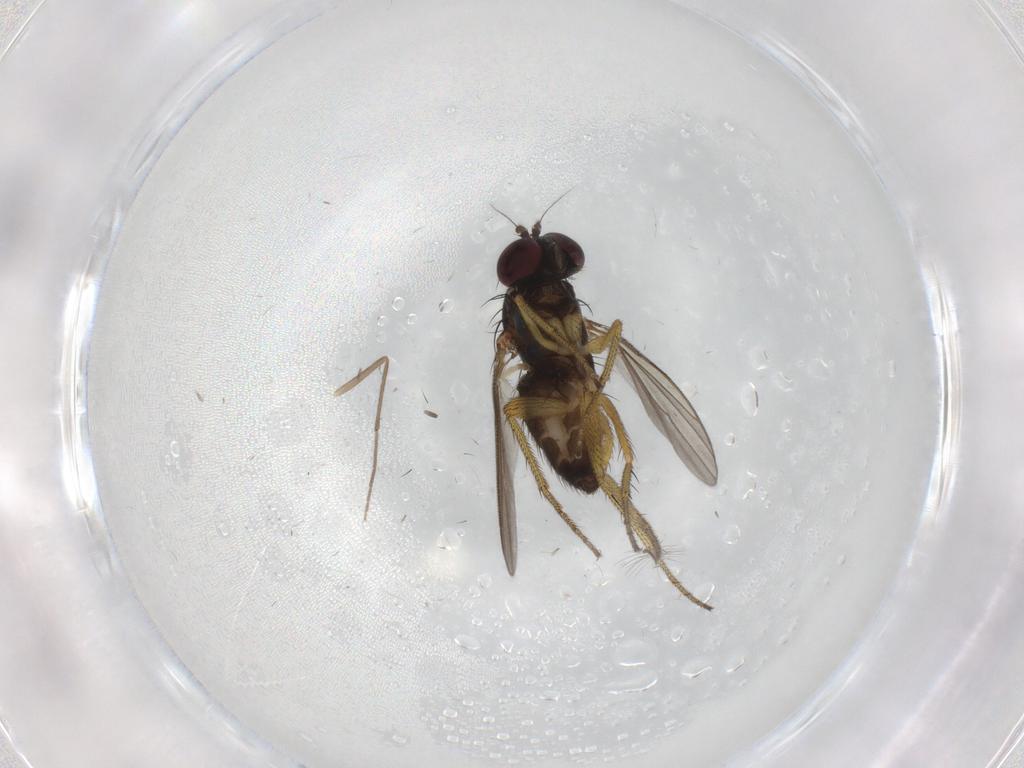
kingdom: Animalia
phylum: Arthropoda
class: Insecta
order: Diptera
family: Dolichopodidae
